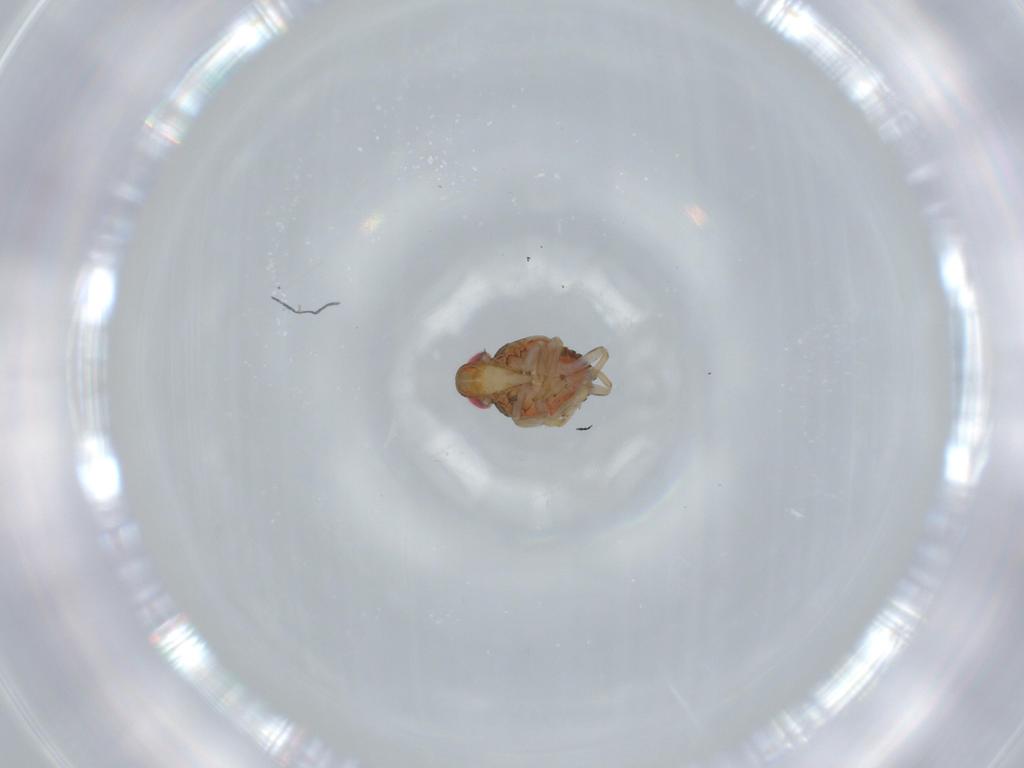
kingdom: Animalia
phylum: Arthropoda
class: Insecta
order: Hemiptera
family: Issidae
